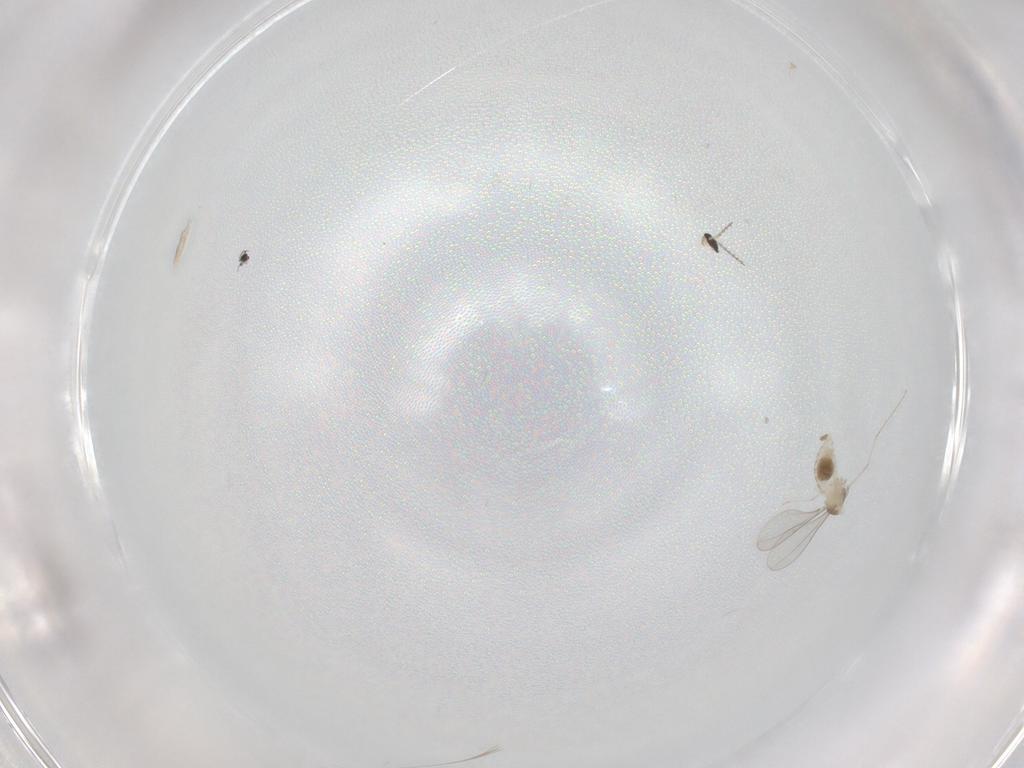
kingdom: Animalia
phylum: Arthropoda
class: Insecta
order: Diptera
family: Cecidomyiidae
